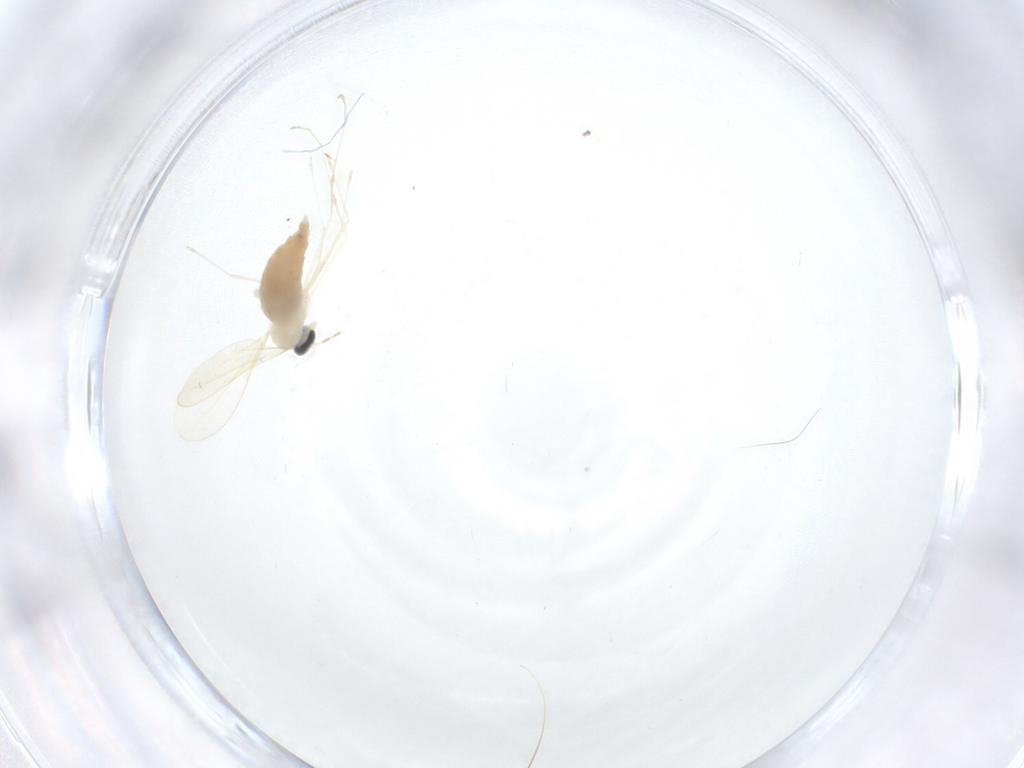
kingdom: Animalia
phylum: Arthropoda
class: Insecta
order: Diptera
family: Cecidomyiidae
